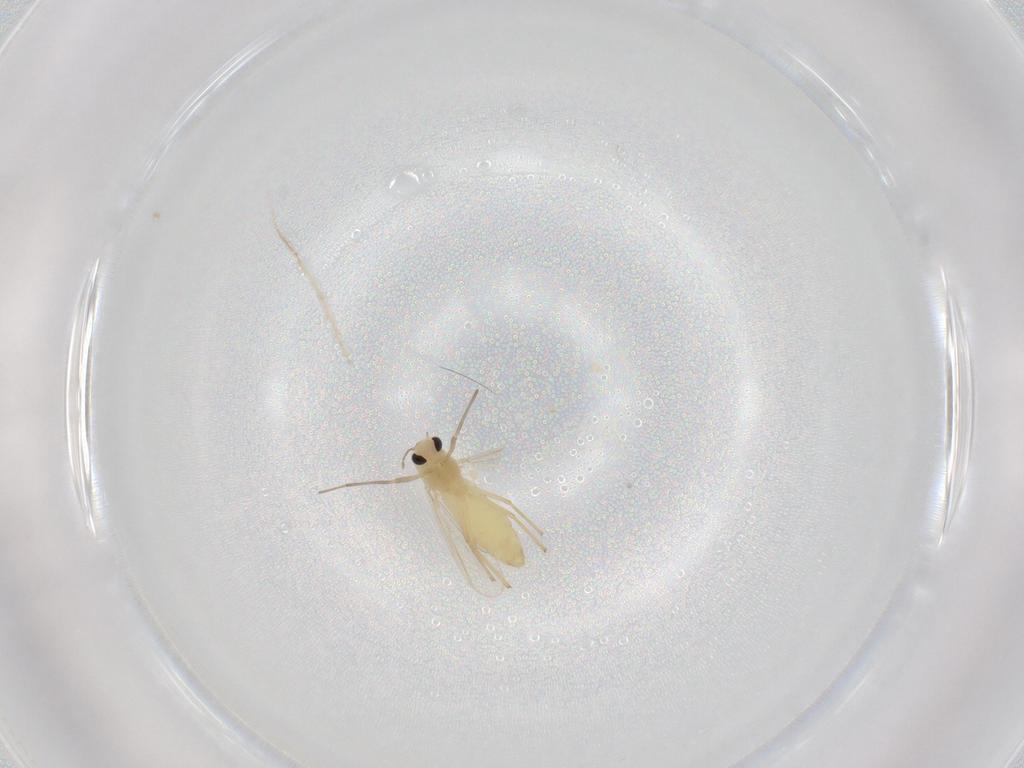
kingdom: Animalia
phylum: Arthropoda
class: Insecta
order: Diptera
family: Chironomidae
